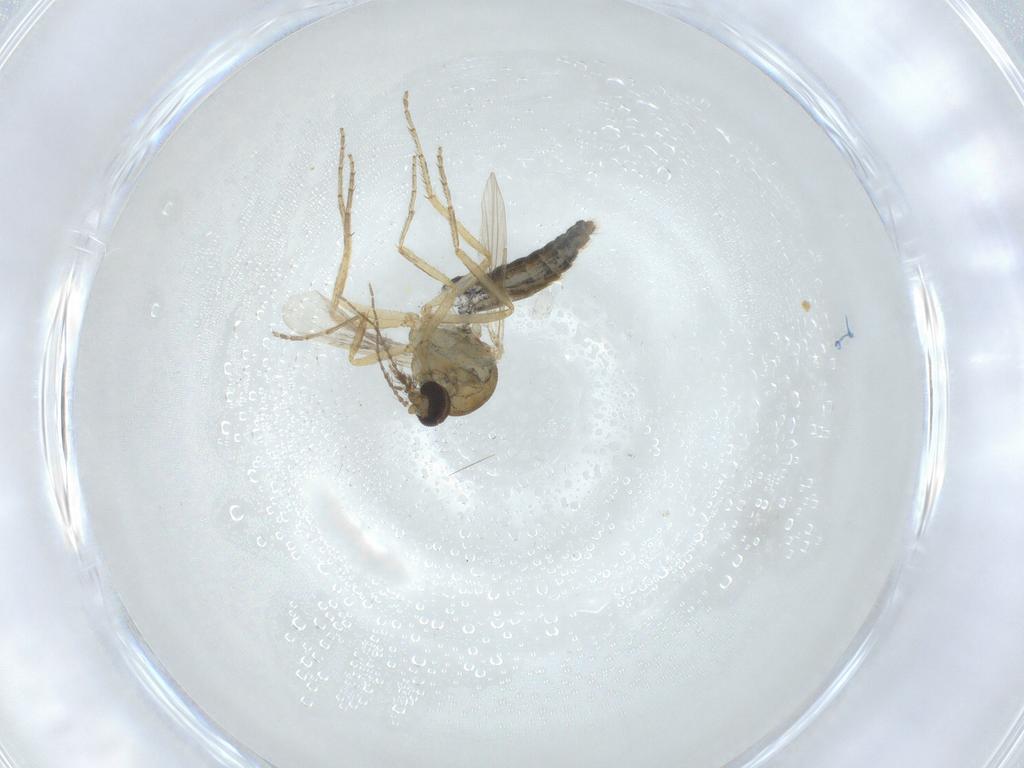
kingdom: Animalia
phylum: Arthropoda
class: Insecta
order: Diptera
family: Ceratopogonidae
